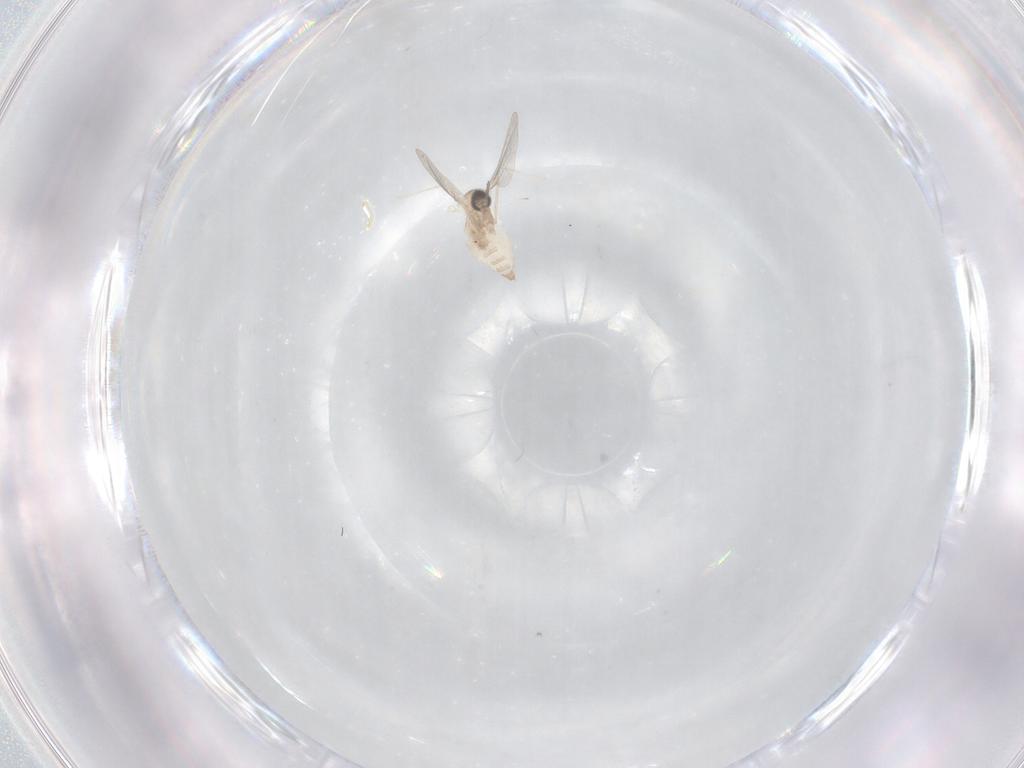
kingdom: Animalia
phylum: Arthropoda
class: Insecta
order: Diptera
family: Cecidomyiidae
